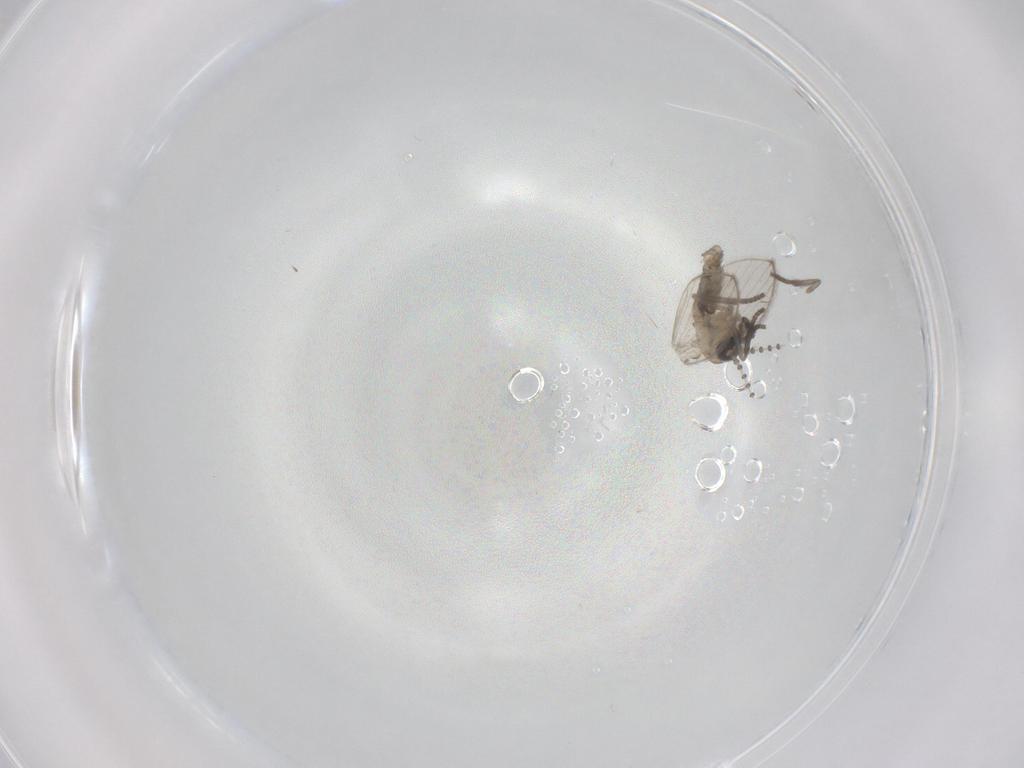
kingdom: Animalia
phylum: Arthropoda
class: Insecta
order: Diptera
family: Psychodidae
